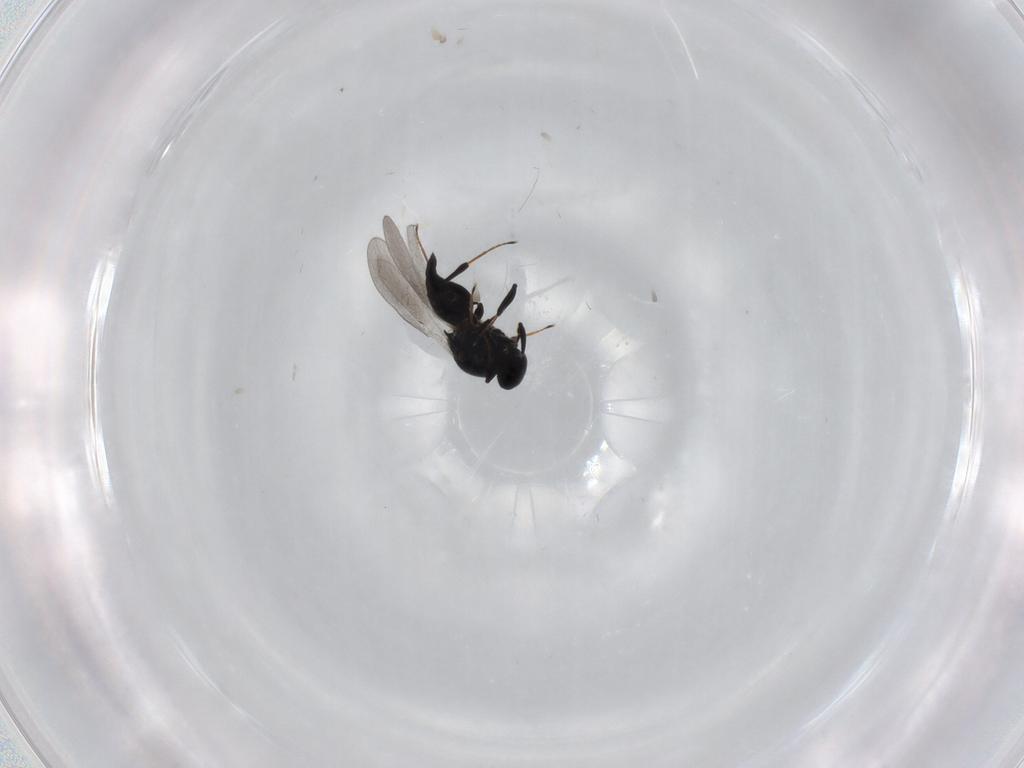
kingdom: Animalia
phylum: Arthropoda
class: Insecta
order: Hymenoptera
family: Platygastridae
